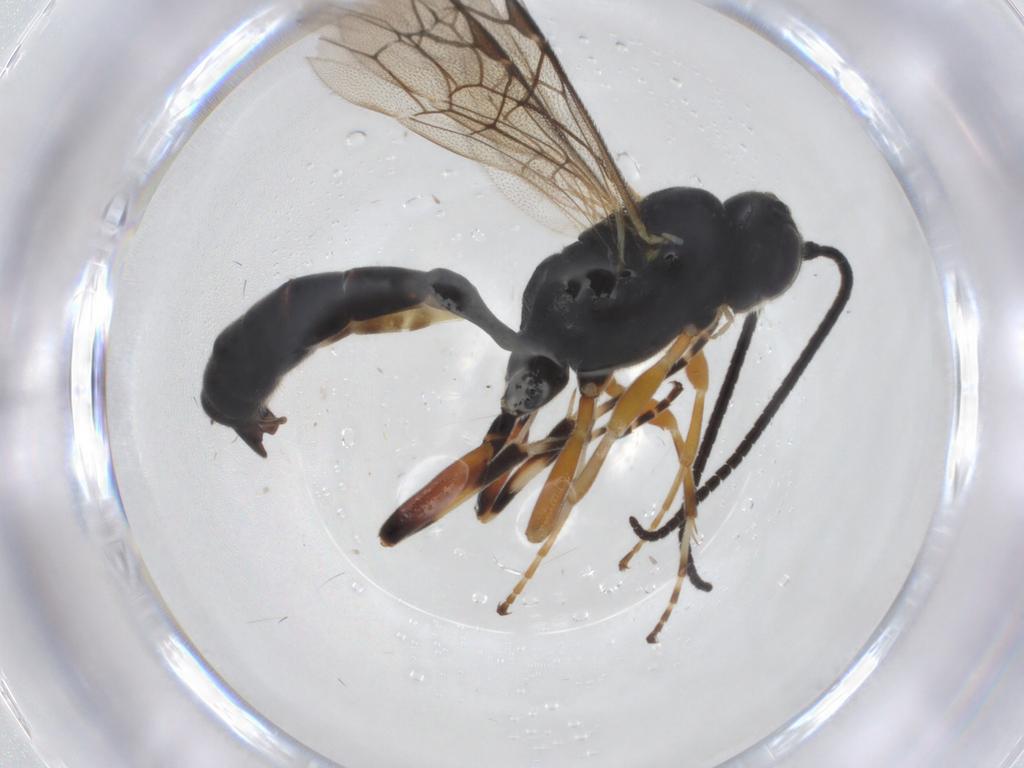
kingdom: Animalia
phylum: Arthropoda
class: Insecta
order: Hymenoptera
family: Ichneumonidae
